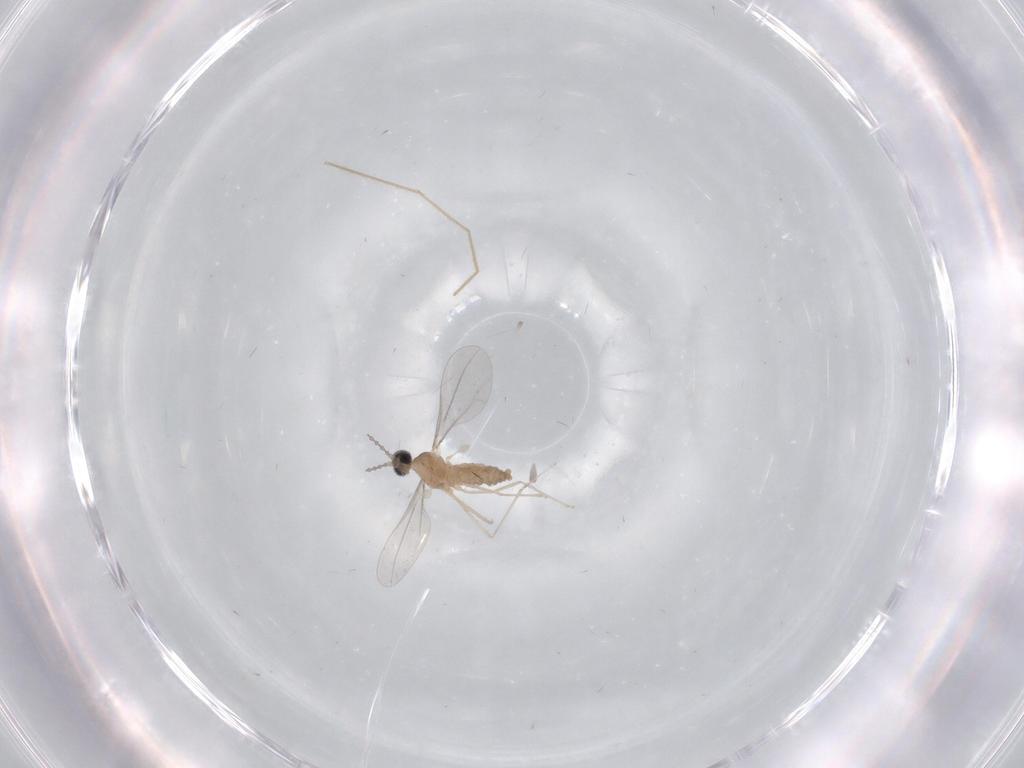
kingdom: Animalia
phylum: Arthropoda
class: Insecta
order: Diptera
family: Chironomidae
